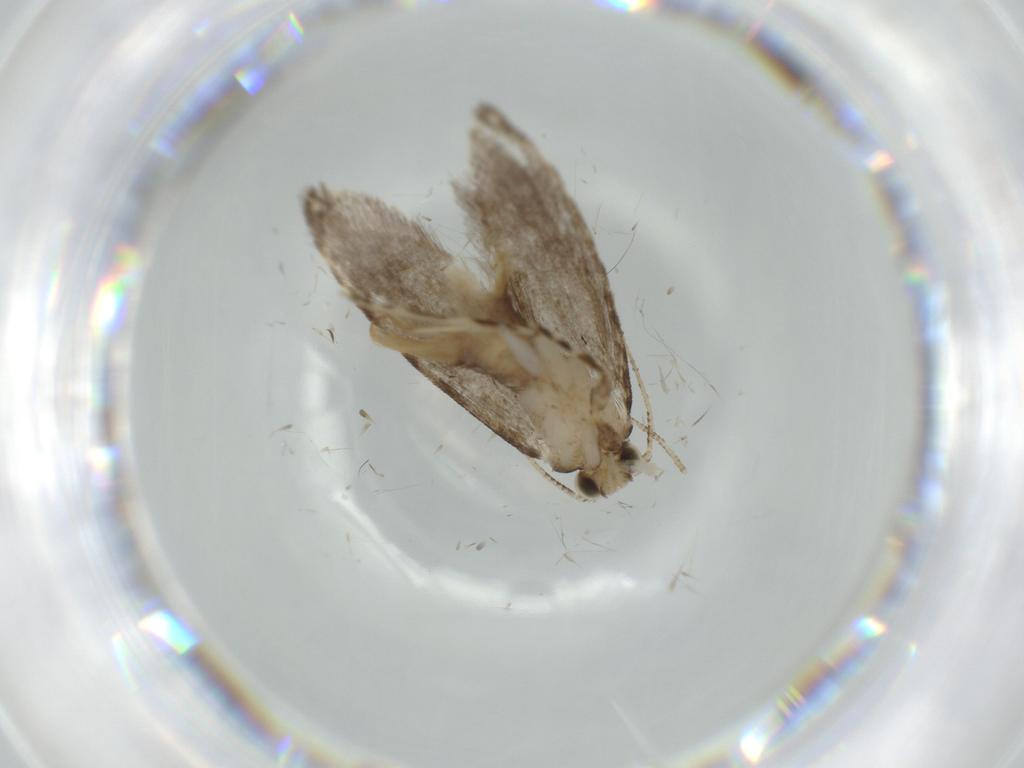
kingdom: Animalia
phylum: Arthropoda
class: Insecta
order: Lepidoptera
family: Tineidae
